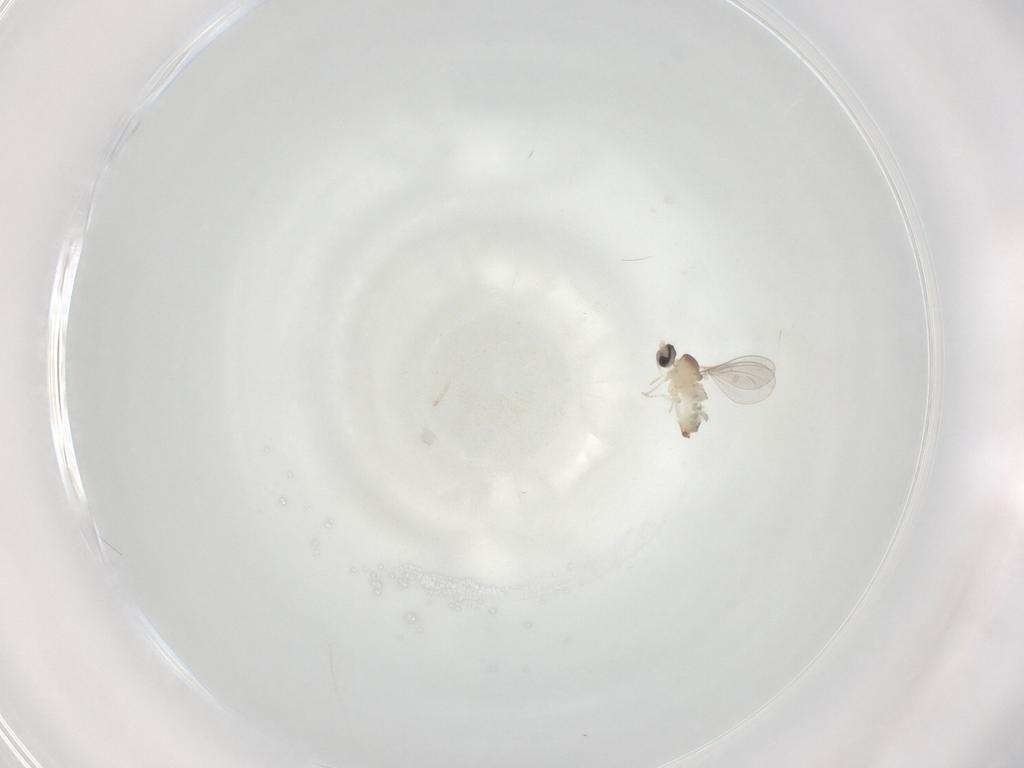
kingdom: Animalia
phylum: Arthropoda
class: Insecta
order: Diptera
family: Cecidomyiidae
